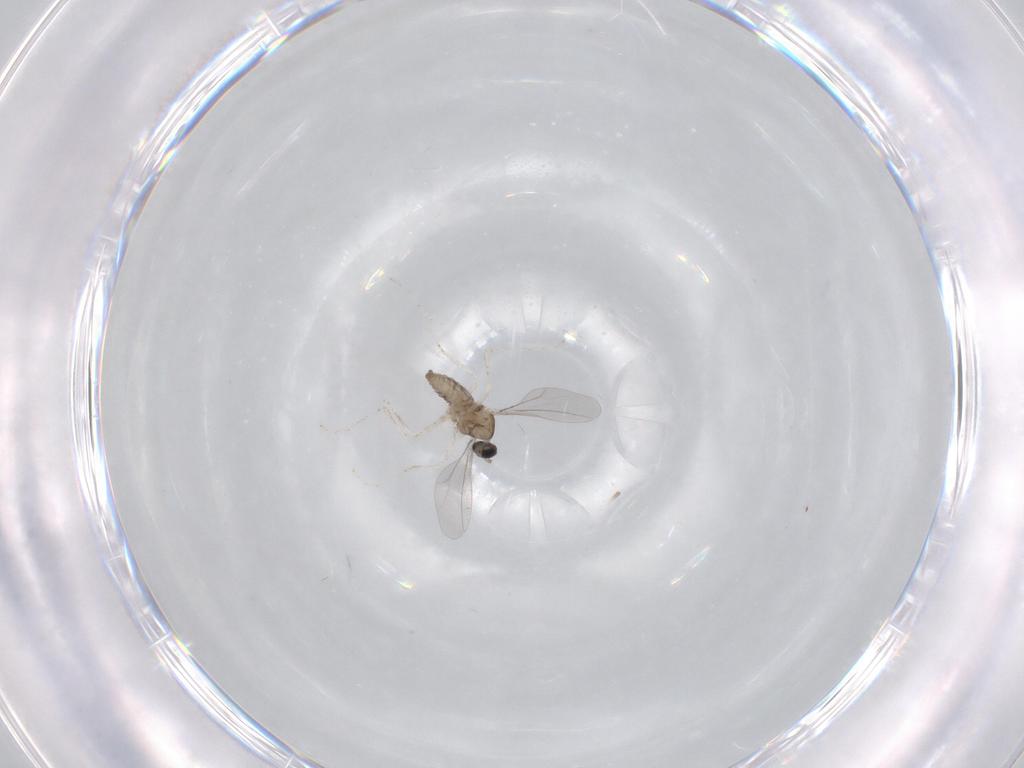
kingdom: Animalia
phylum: Arthropoda
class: Insecta
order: Diptera
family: Cecidomyiidae
